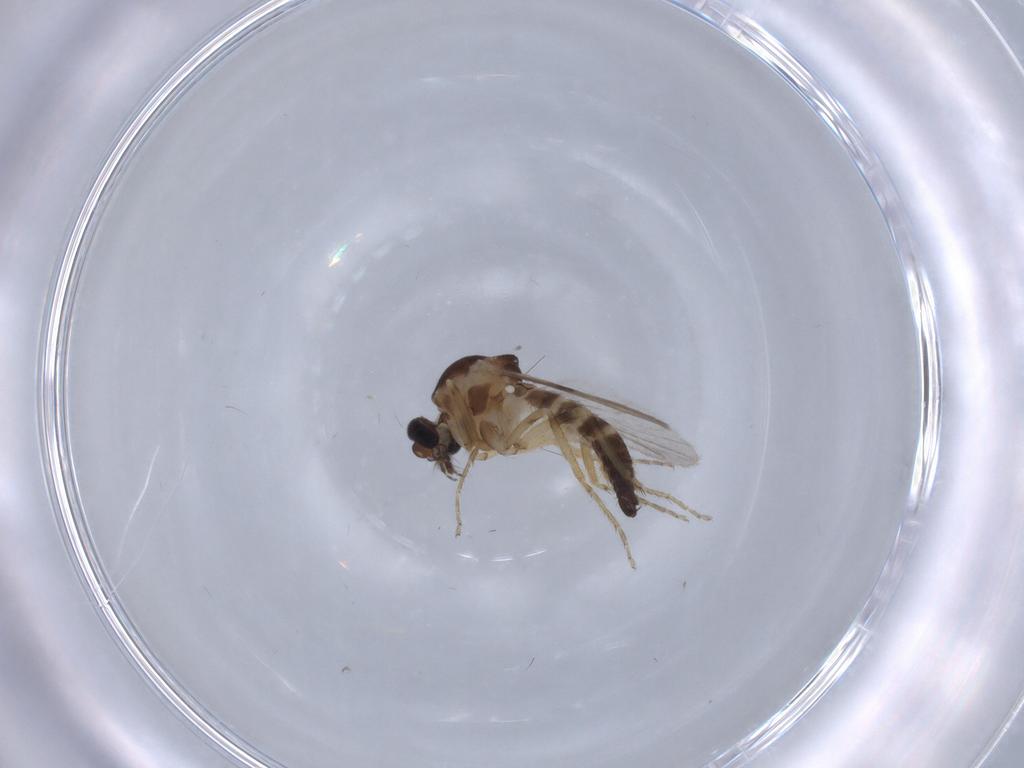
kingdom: Animalia
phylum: Arthropoda
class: Insecta
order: Diptera
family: Ceratopogonidae
